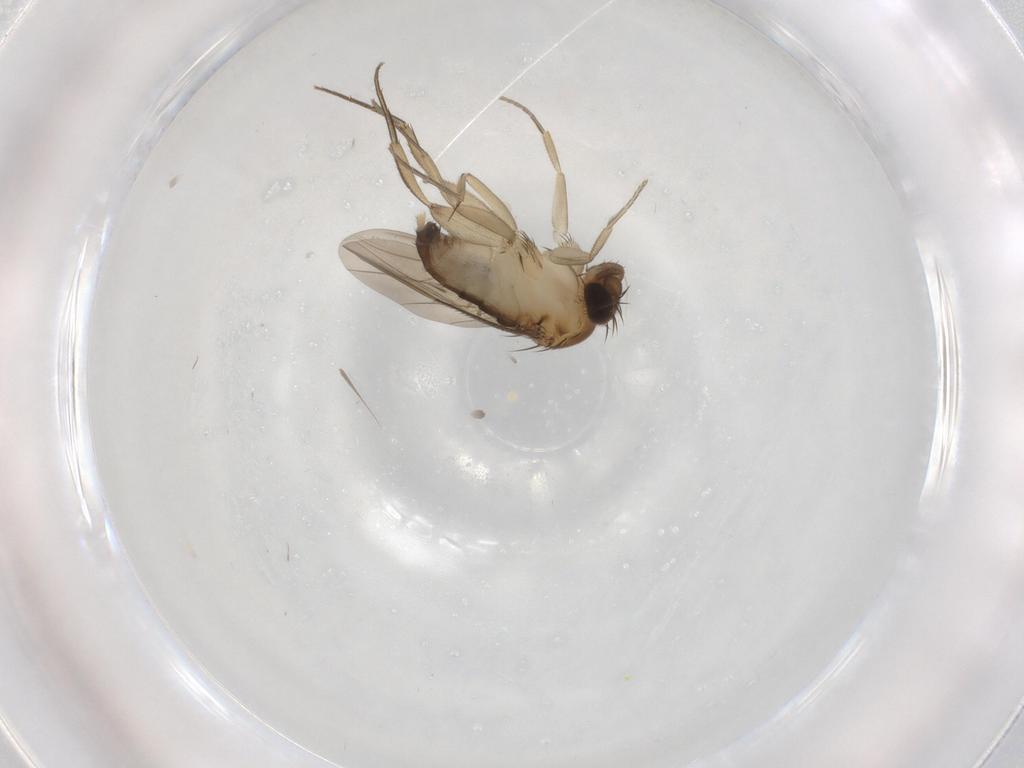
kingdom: Animalia
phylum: Arthropoda
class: Insecta
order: Diptera
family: Phoridae
